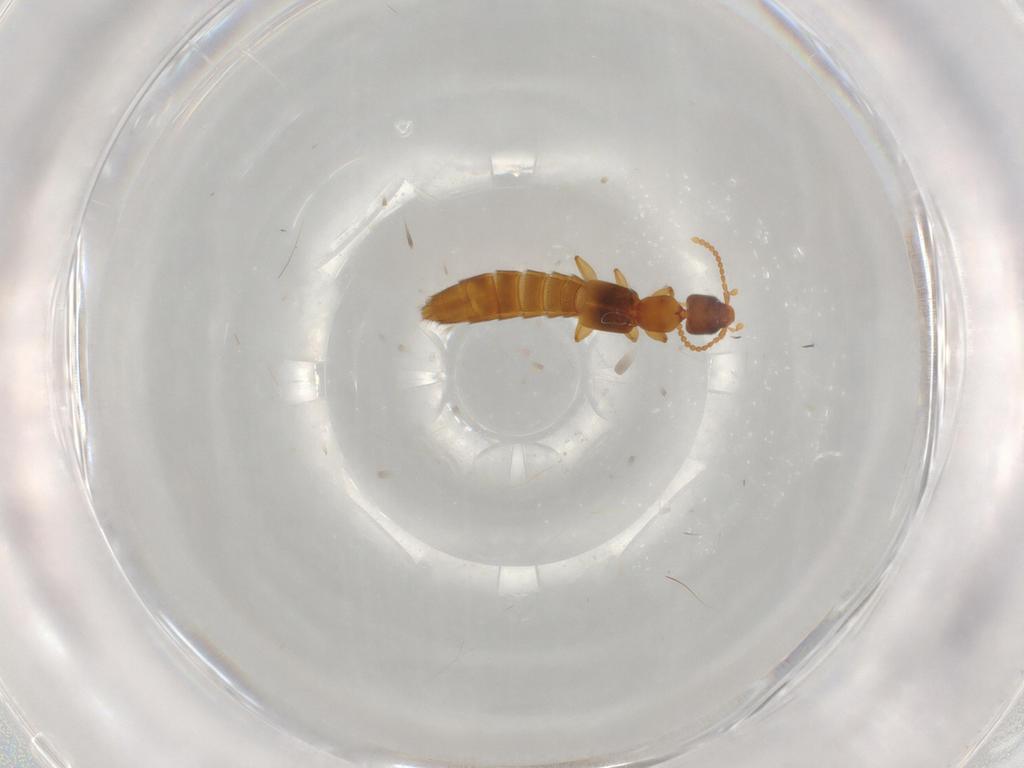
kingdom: Animalia
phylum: Arthropoda
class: Insecta
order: Coleoptera
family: Staphylinidae
